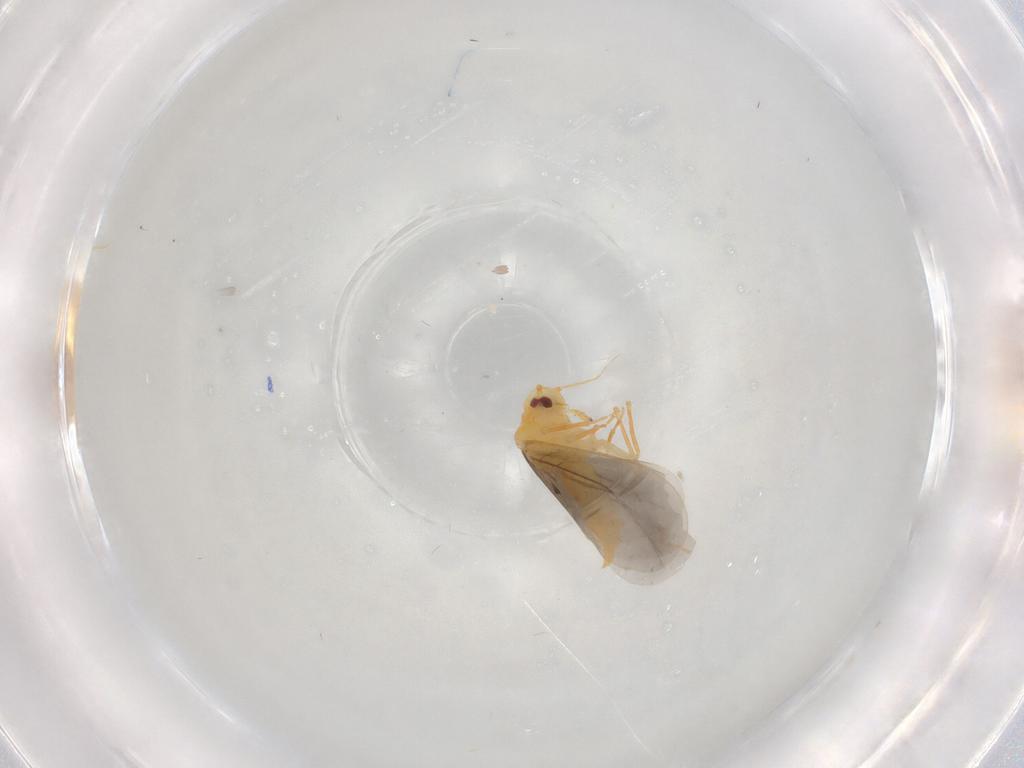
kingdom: Animalia
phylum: Arthropoda
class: Insecta
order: Hemiptera
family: Aleyrodidae
